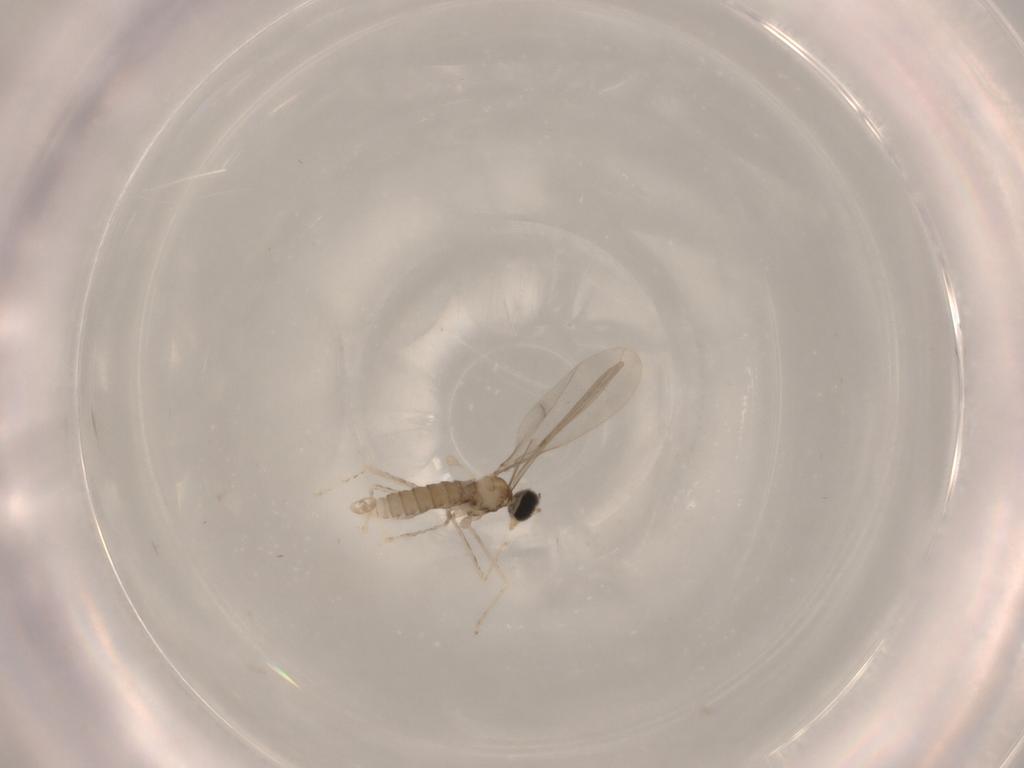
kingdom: Animalia
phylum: Arthropoda
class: Insecta
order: Diptera
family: Cecidomyiidae
